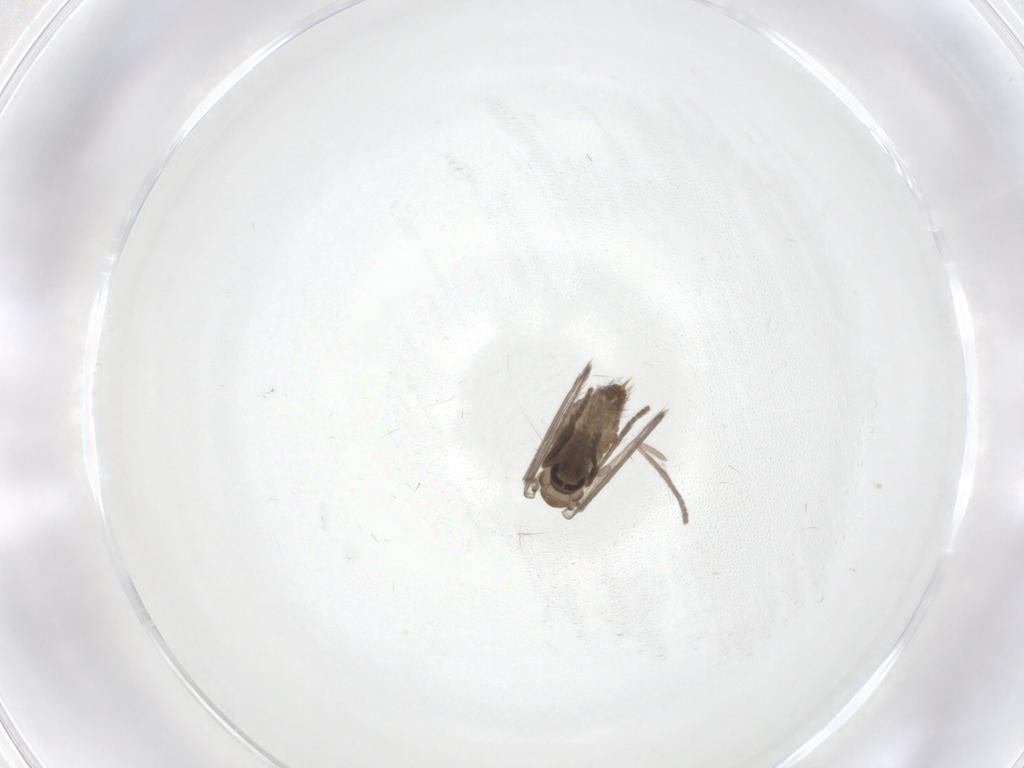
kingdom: Animalia
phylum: Arthropoda
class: Insecta
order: Diptera
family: Psychodidae
